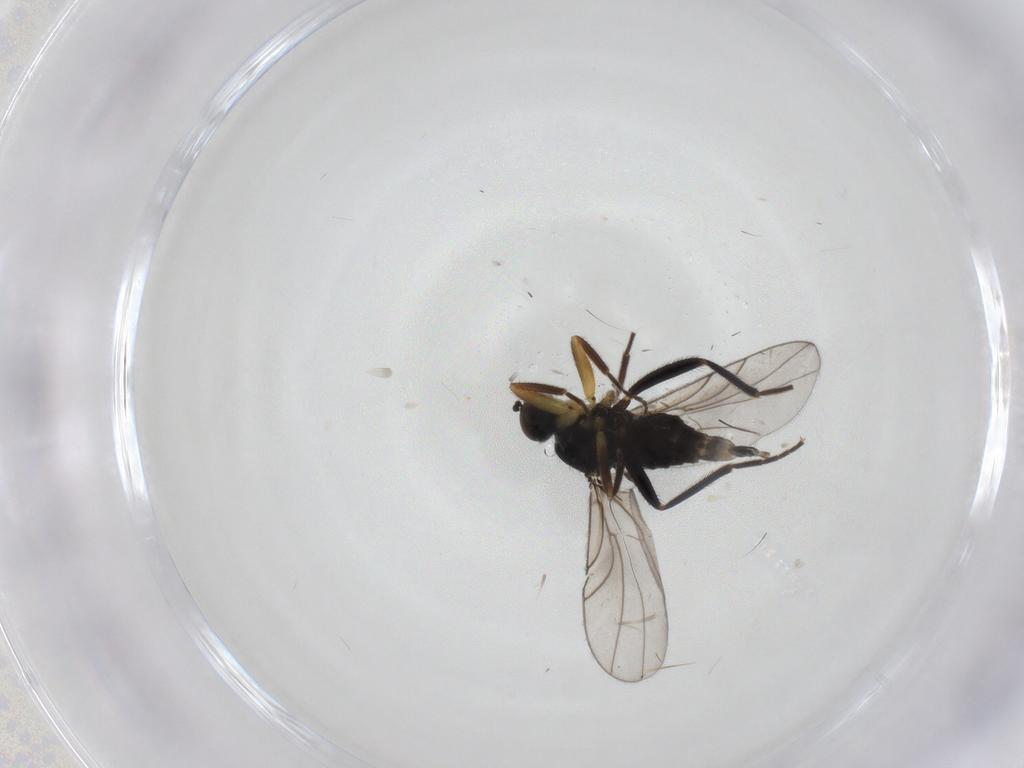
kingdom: Animalia
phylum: Arthropoda
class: Insecta
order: Diptera
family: Hybotidae
